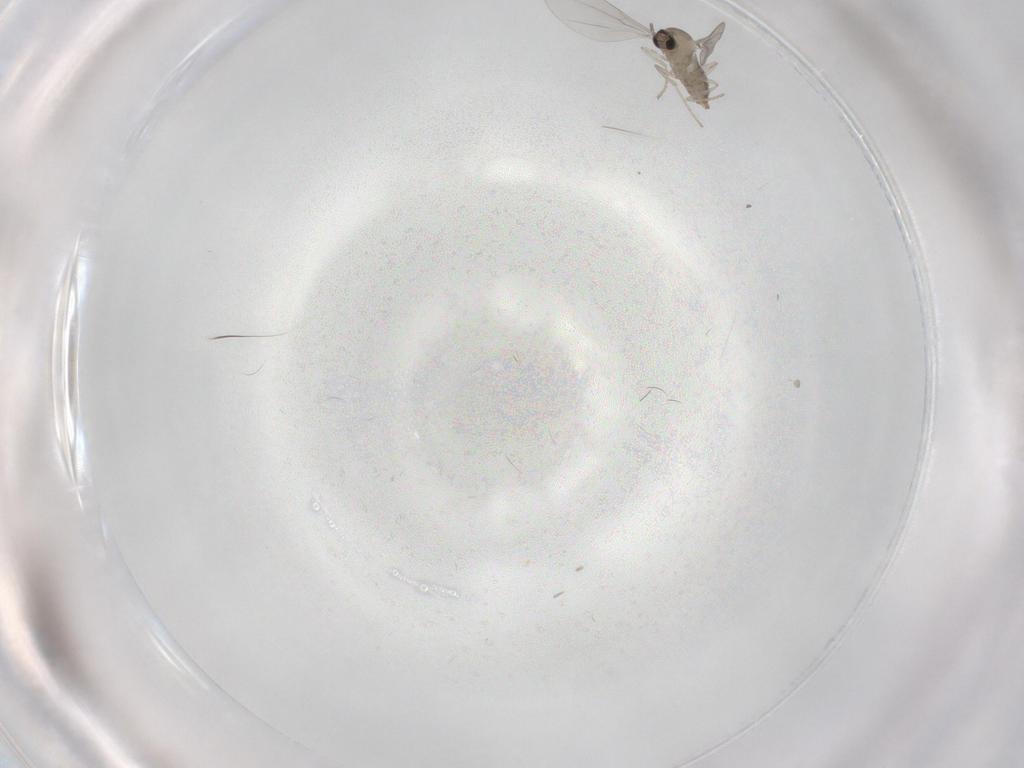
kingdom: Animalia
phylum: Arthropoda
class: Insecta
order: Diptera
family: Cecidomyiidae
